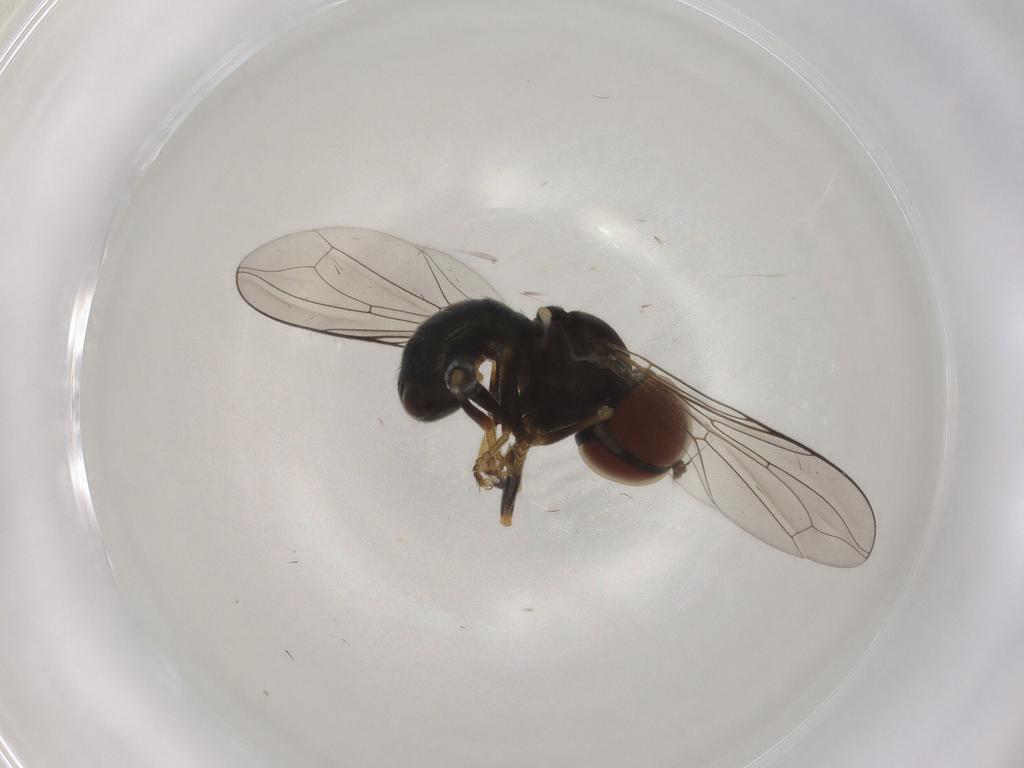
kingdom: Animalia
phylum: Arthropoda
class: Insecta
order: Diptera
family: Pipunculidae
